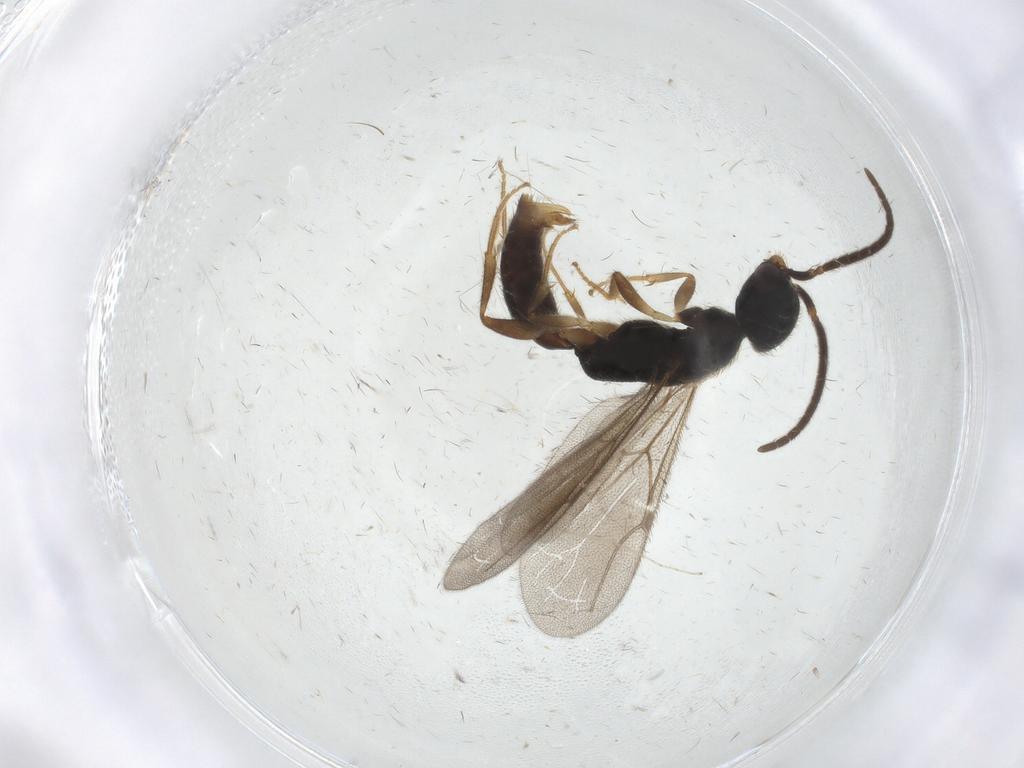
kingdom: Animalia
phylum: Arthropoda
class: Insecta
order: Hymenoptera
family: Bethylidae
